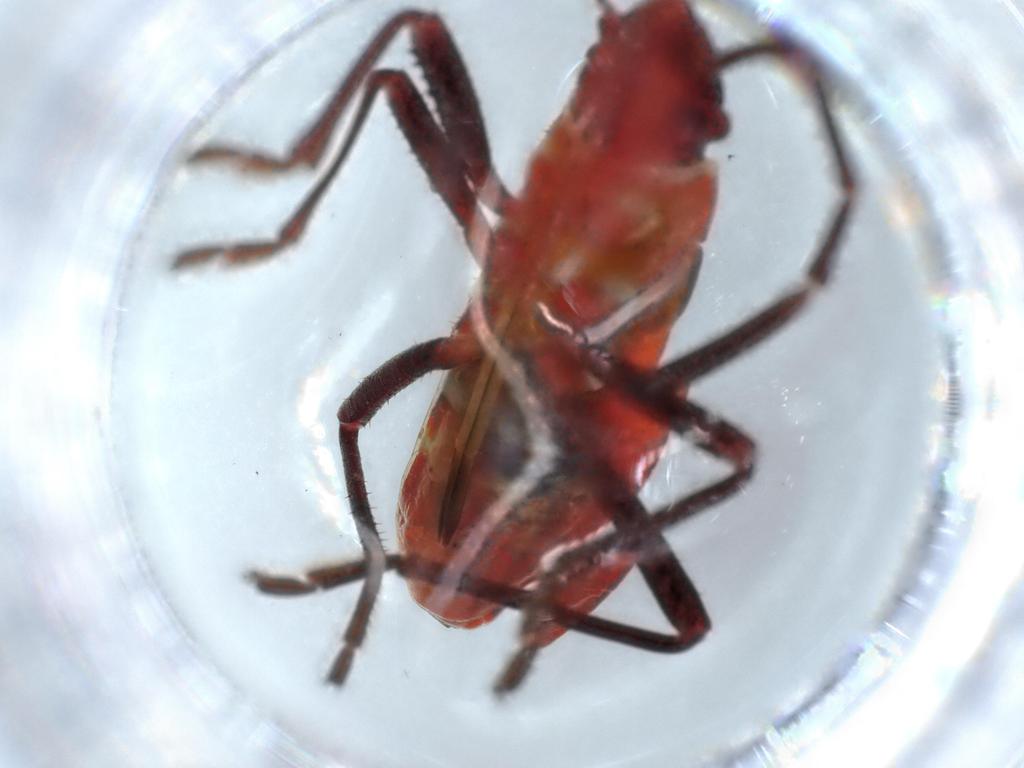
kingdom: Animalia
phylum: Arthropoda
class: Insecta
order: Hemiptera
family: Pyrrhocoridae
